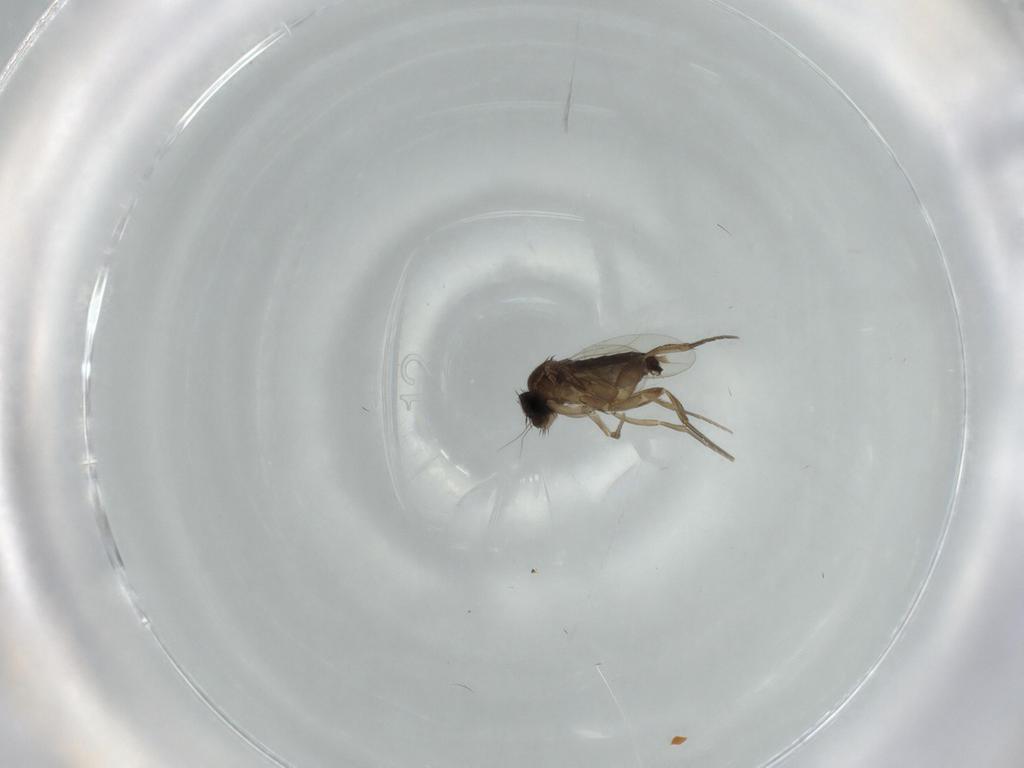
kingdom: Animalia
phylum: Arthropoda
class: Insecta
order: Diptera
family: Phoridae
